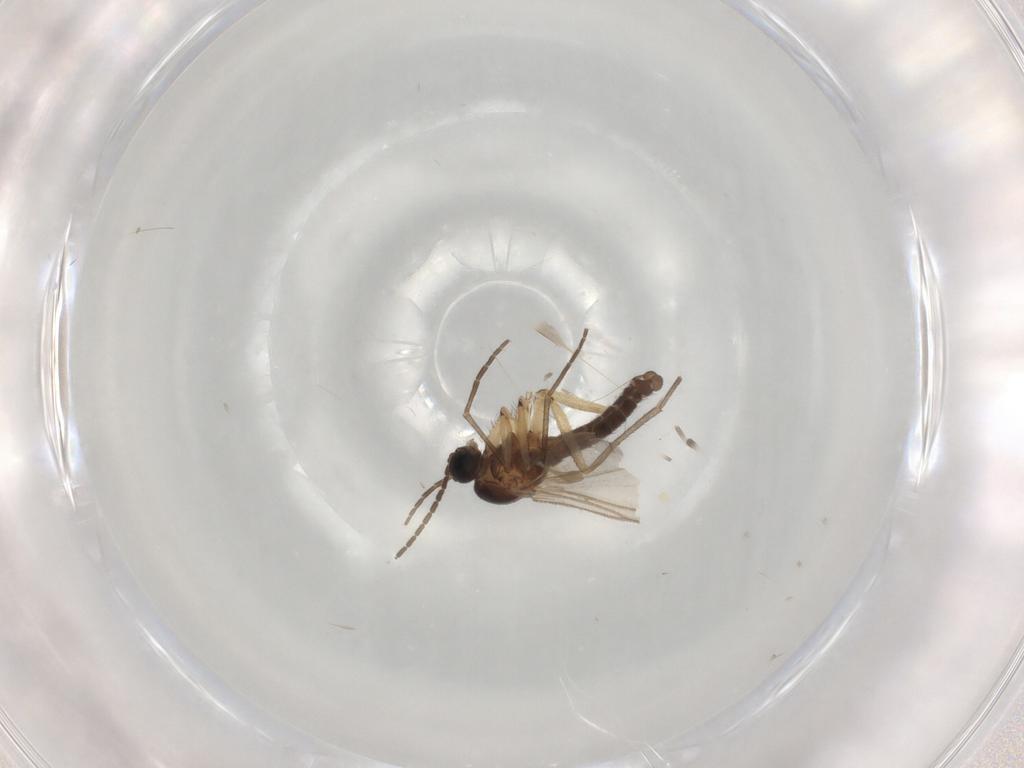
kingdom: Animalia
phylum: Arthropoda
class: Insecta
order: Diptera
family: Sciaridae
